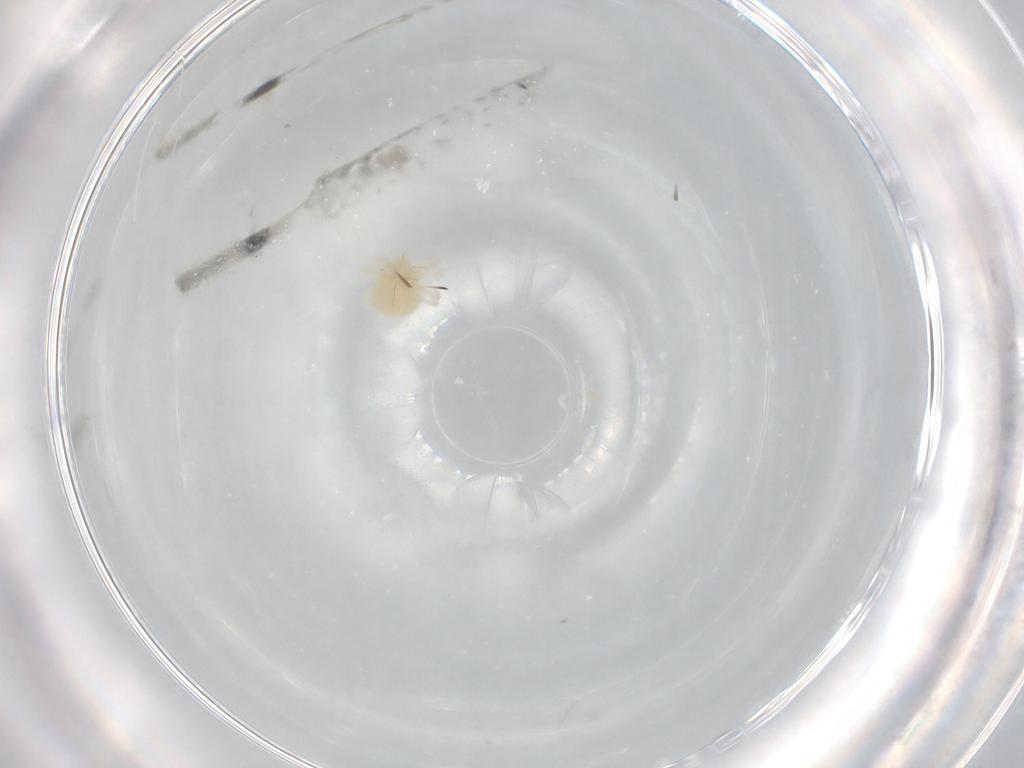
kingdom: Animalia
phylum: Arthropoda
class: Arachnida
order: Trombidiformes
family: Anystidae
